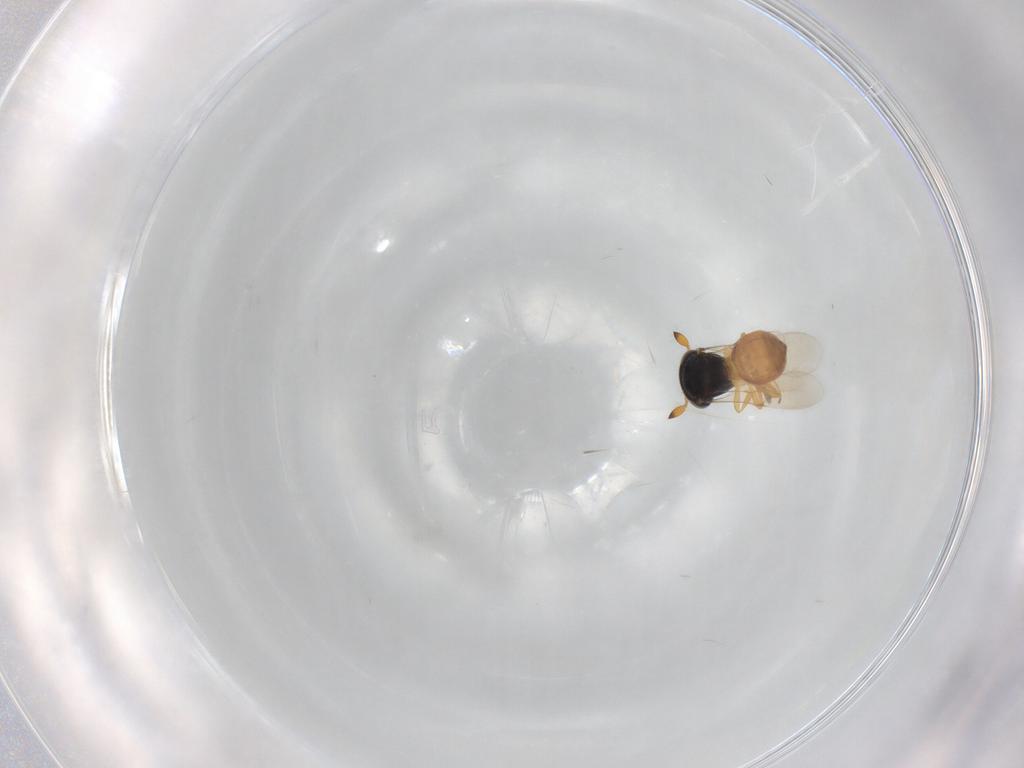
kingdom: Animalia
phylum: Arthropoda
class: Insecta
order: Hymenoptera
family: Scelionidae
